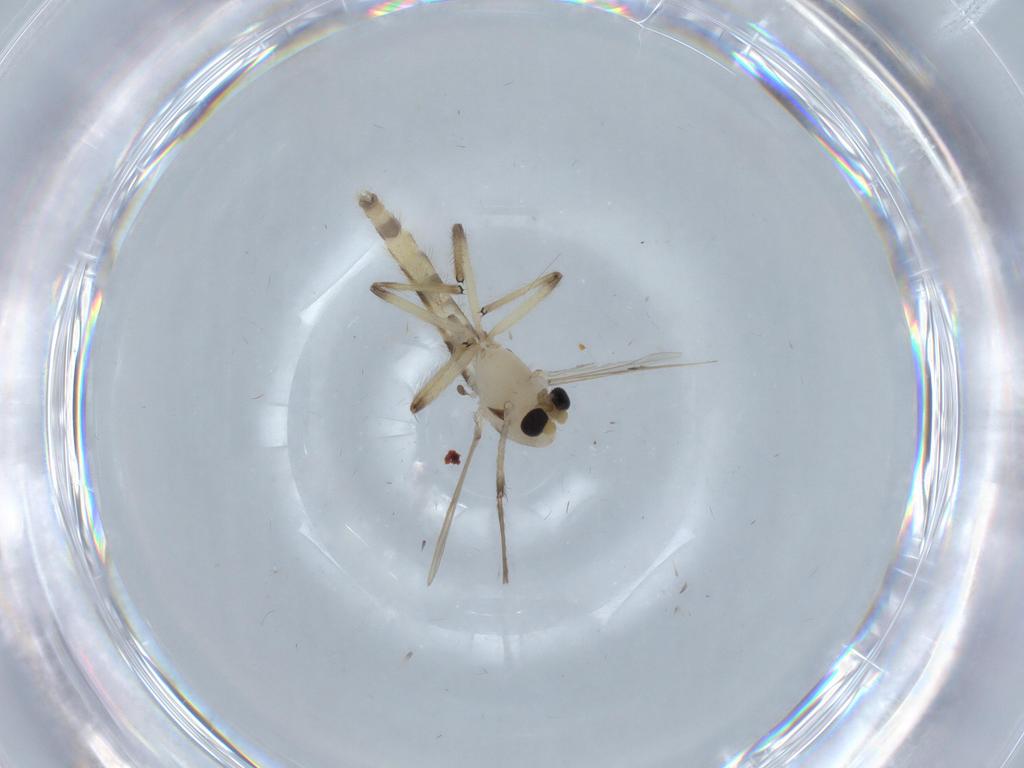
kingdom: Animalia
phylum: Arthropoda
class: Insecta
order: Diptera
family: Chironomidae
